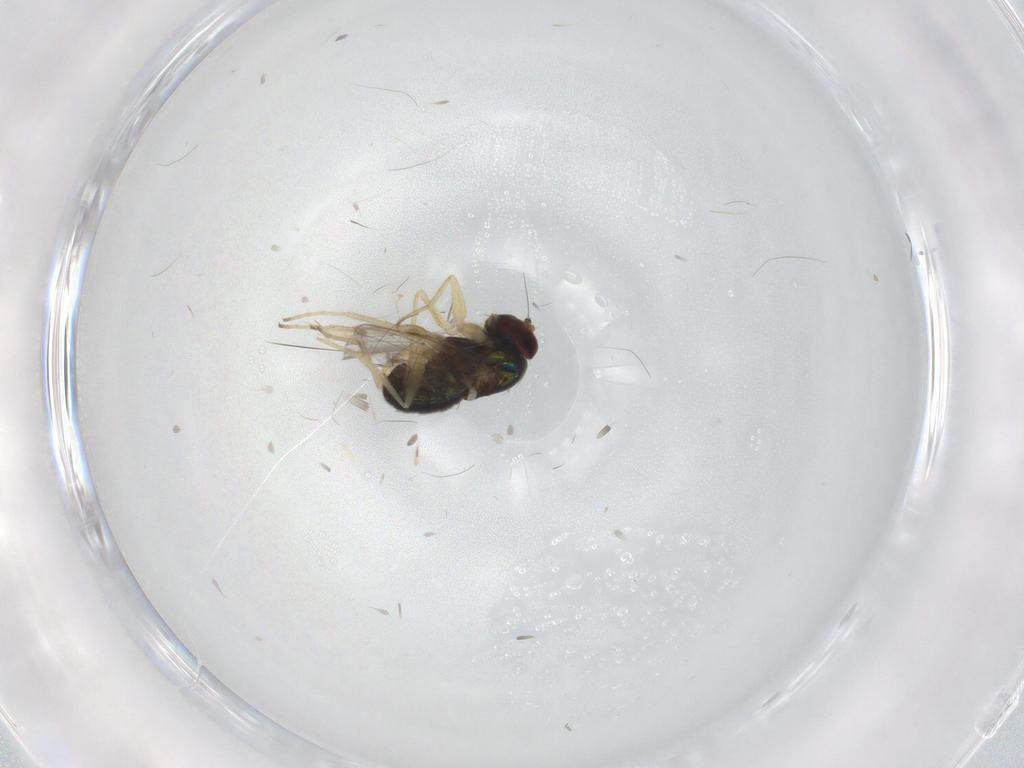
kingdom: Animalia
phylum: Arthropoda
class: Insecta
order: Diptera
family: Dolichopodidae
